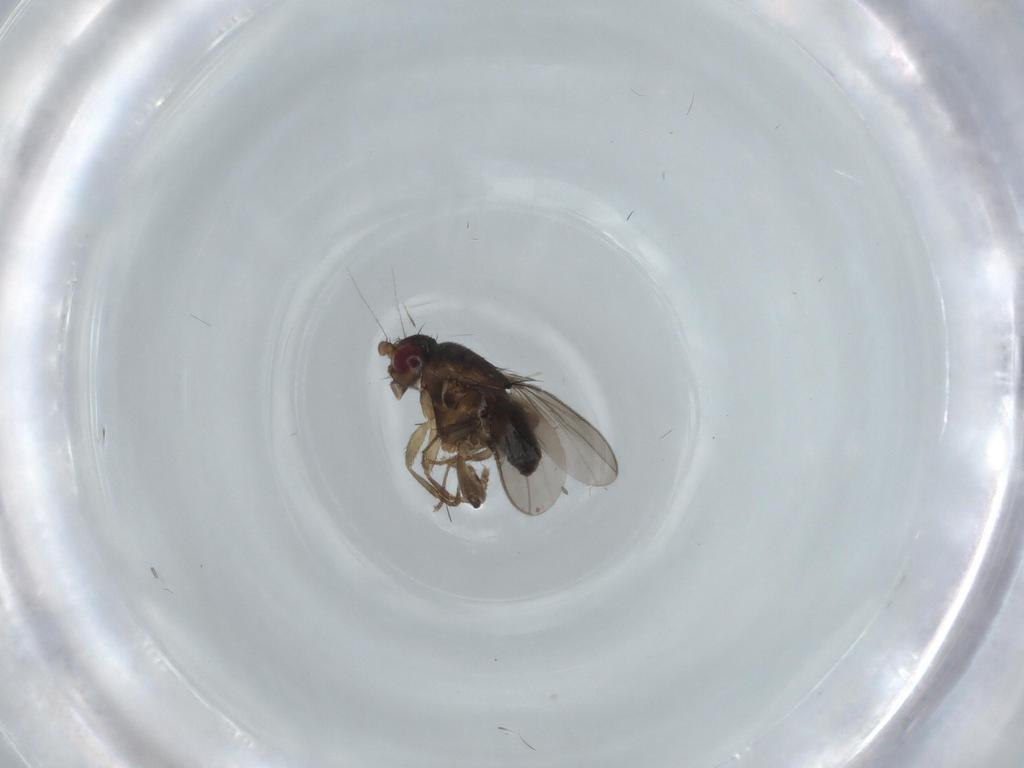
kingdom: Animalia
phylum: Arthropoda
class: Insecta
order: Diptera
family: Sphaeroceridae
